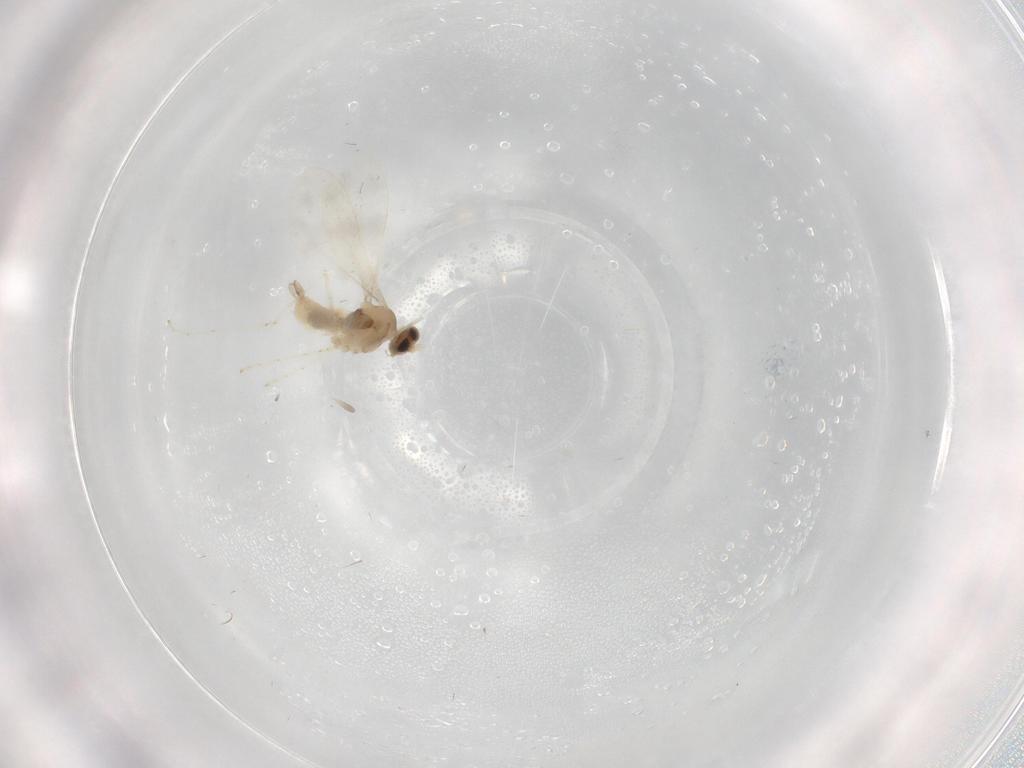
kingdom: Animalia
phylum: Arthropoda
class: Insecta
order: Diptera
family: Cecidomyiidae
